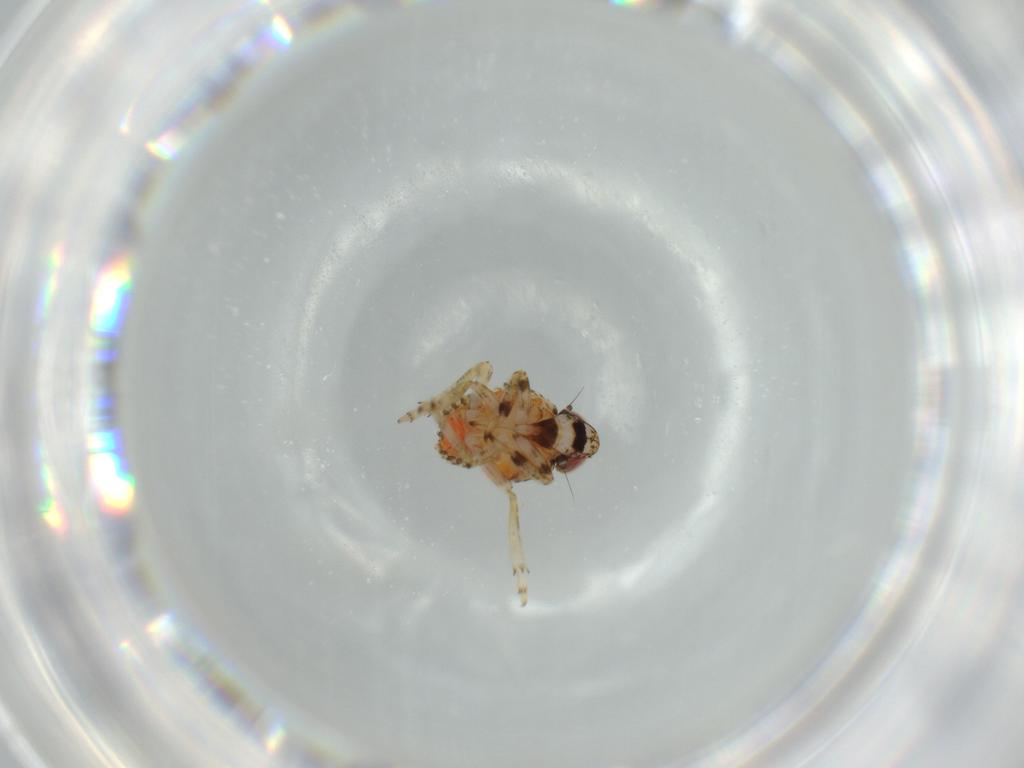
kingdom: Animalia
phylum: Arthropoda
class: Insecta
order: Hemiptera
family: Issidae
